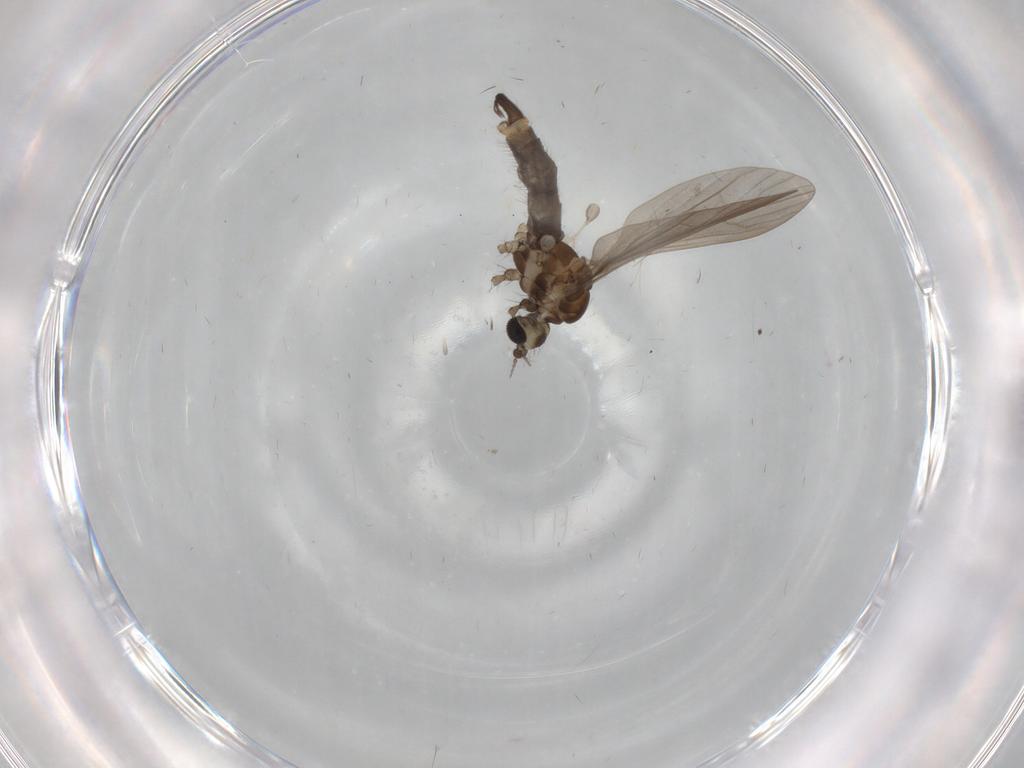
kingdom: Animalia
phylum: Arthropoda
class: Insecta
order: Diptera
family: Limoniidae
